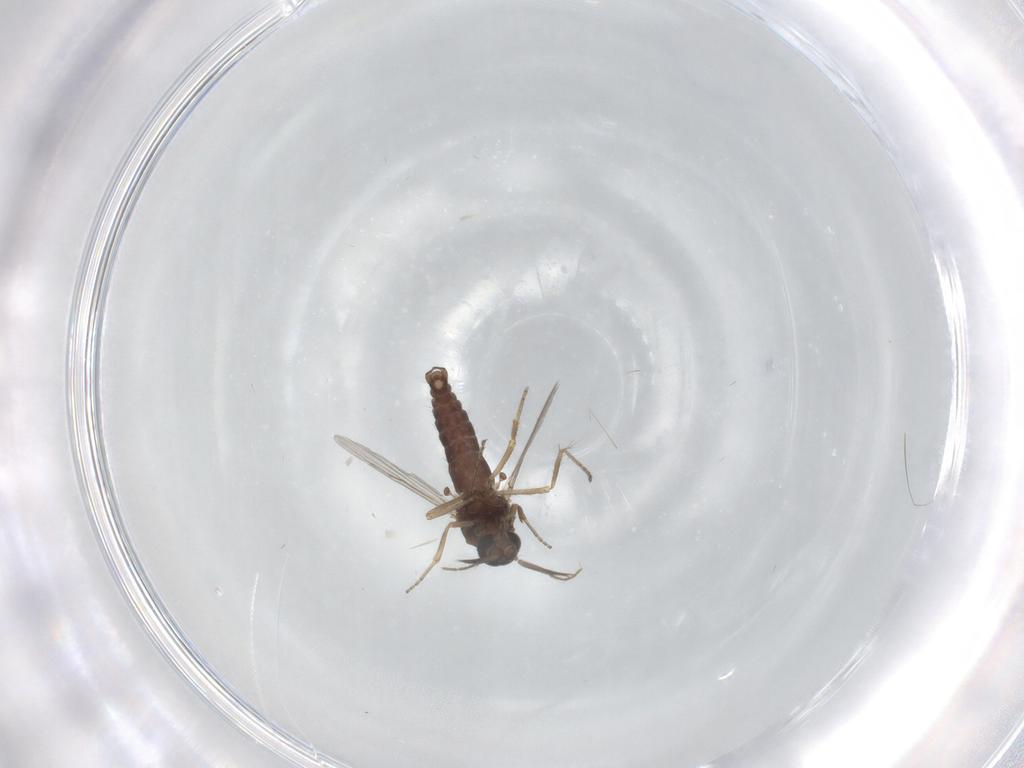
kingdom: Animalia
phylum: Arthropoda
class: Insecta
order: Diptera
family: Ceratopogonidae
